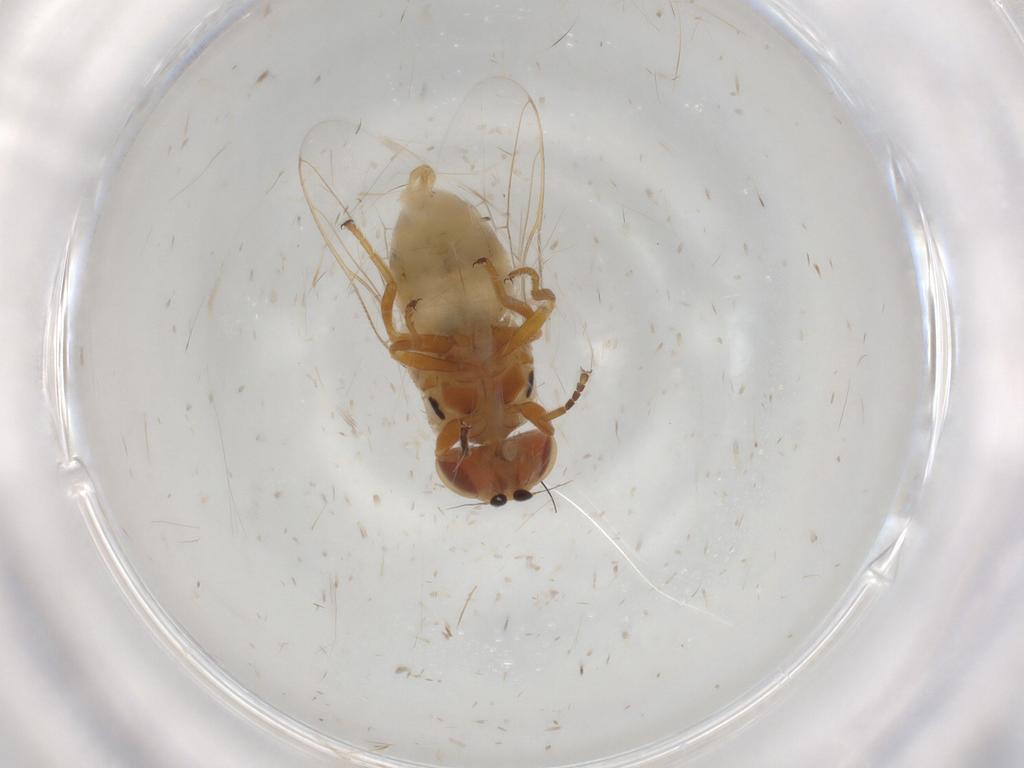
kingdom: Animalia
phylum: Arthropoda
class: Insecta
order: Diptera
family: Chloropidae
